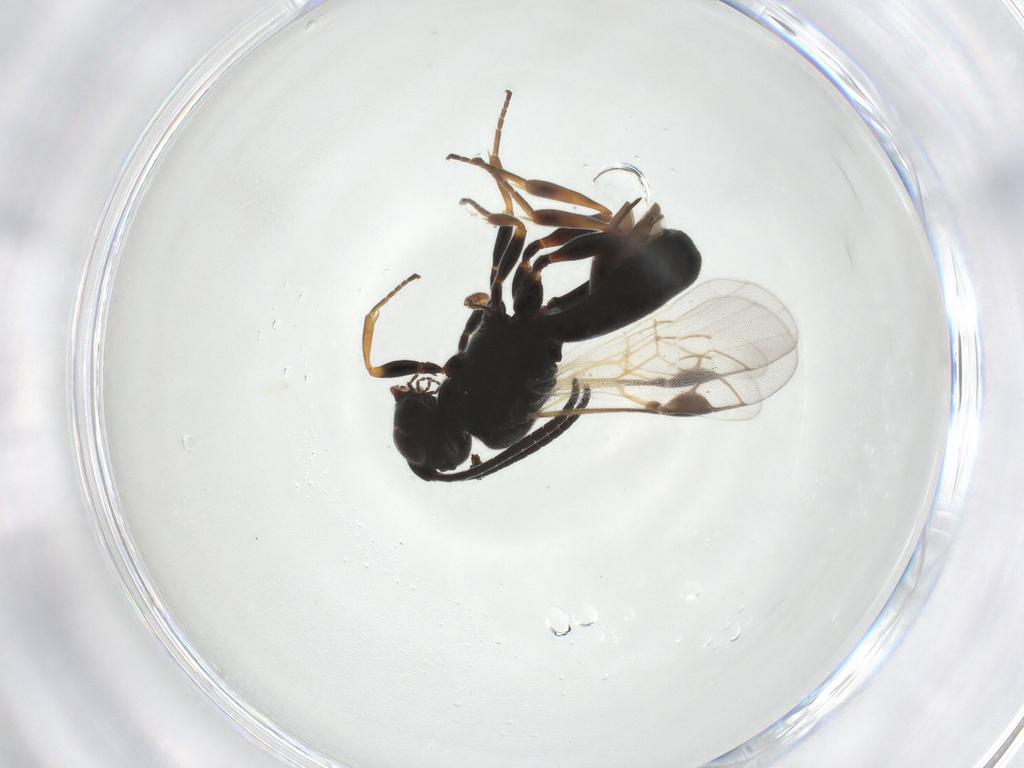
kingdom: Animalia
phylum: Arthropoda
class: Insecta
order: Hymenoptera
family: Braconidae
